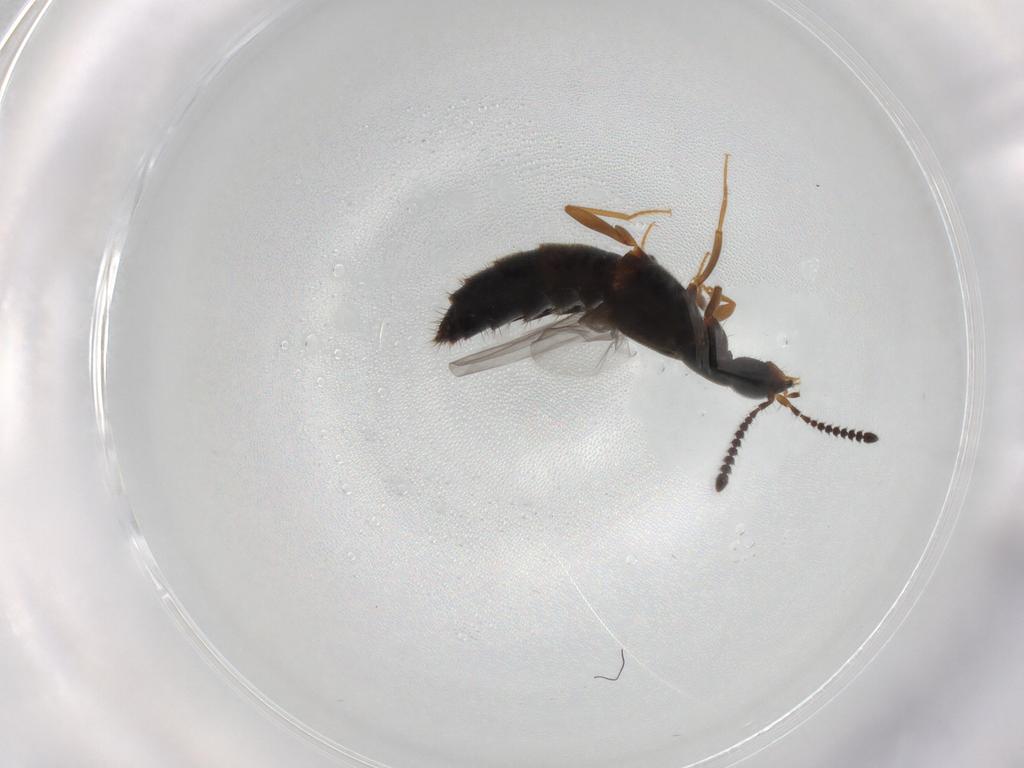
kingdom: Animalia
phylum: Arthropoda
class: Insecta
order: Coleoptera
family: Staphylinidae
